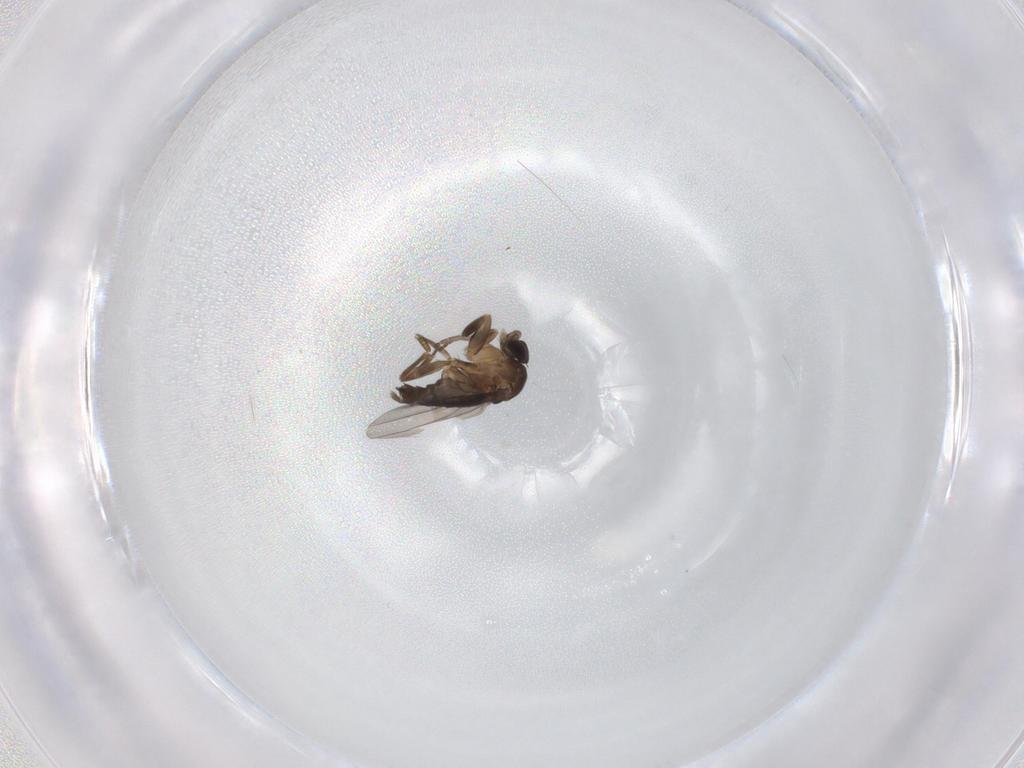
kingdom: Animalia
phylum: Arthropoda
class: Insecta
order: Diptera
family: Phoridae
